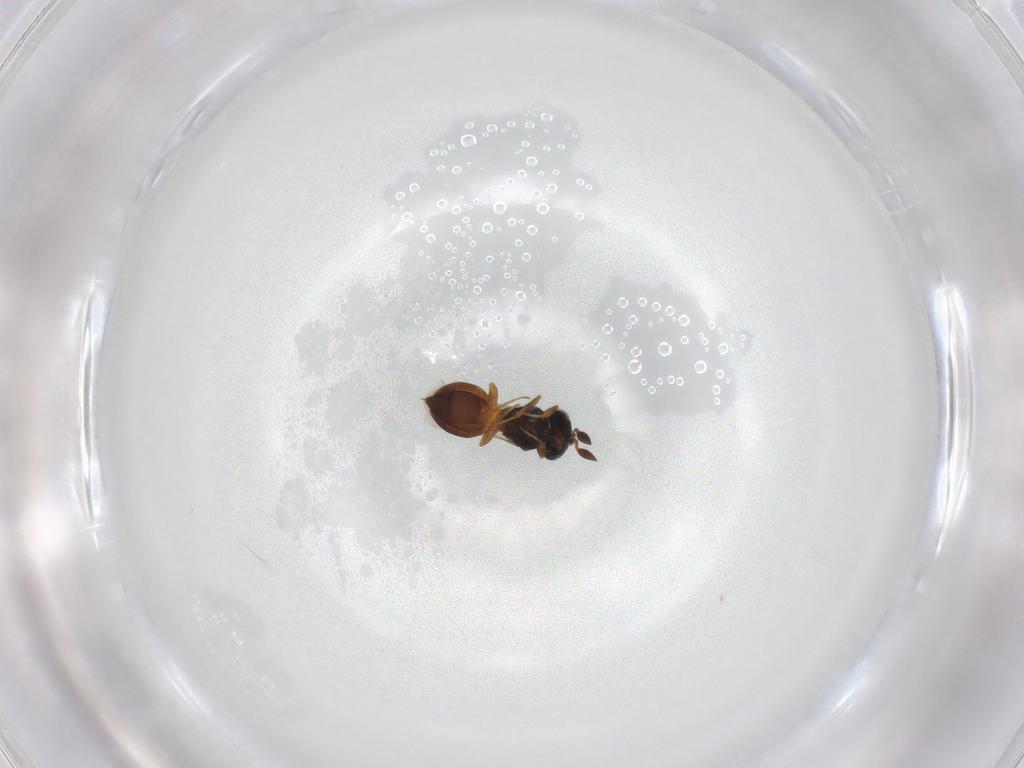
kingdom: Animalia
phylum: Arthropoda
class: Insecta
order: Hymenoptera
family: Scelionidae
